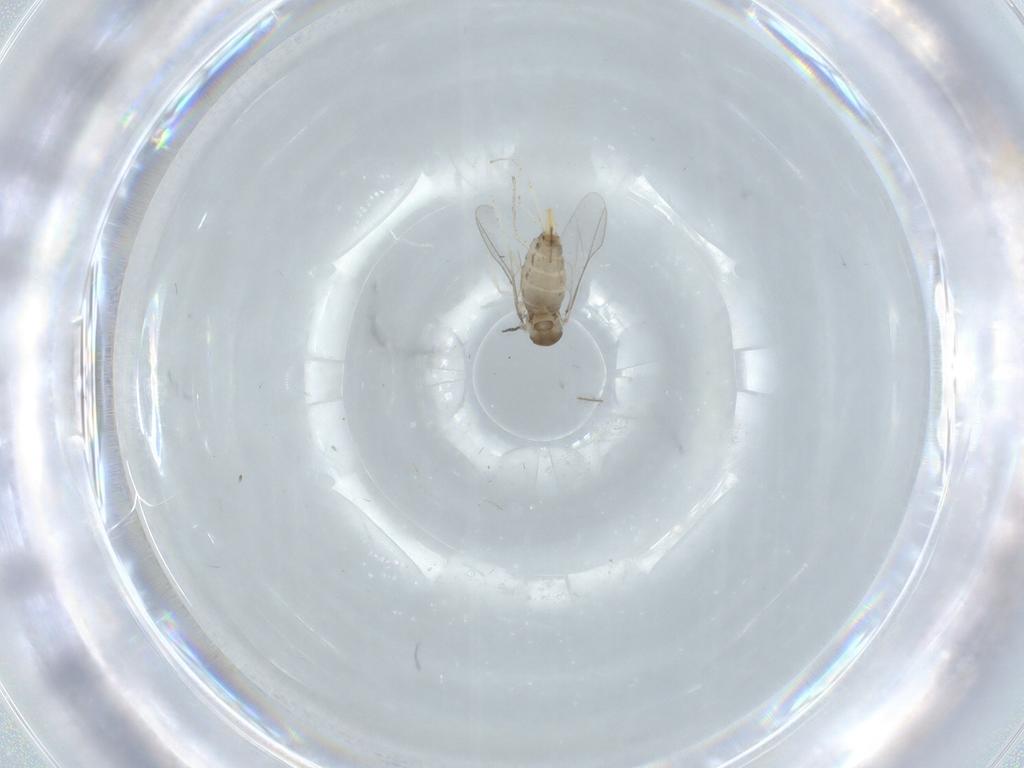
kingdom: Animalia
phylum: Arthropoda
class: Insecta
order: Diptera
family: Cecidomyiidae
